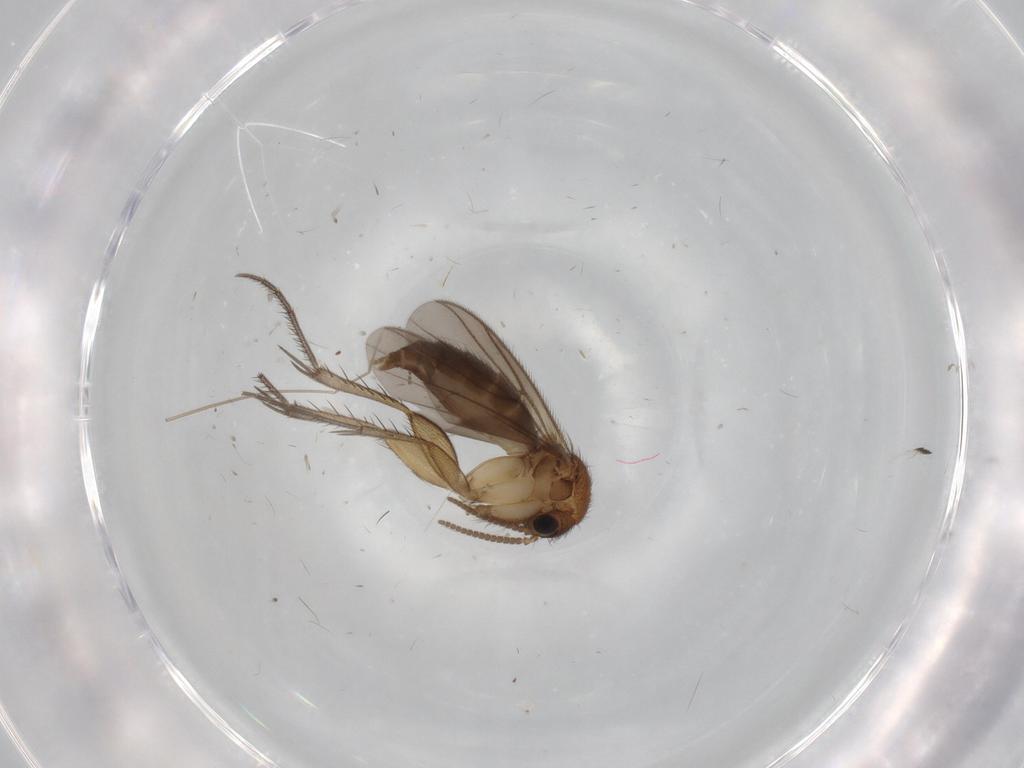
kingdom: Animalia
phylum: Arthropoda
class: Insecta
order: Diptera
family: Mycetophilidae
